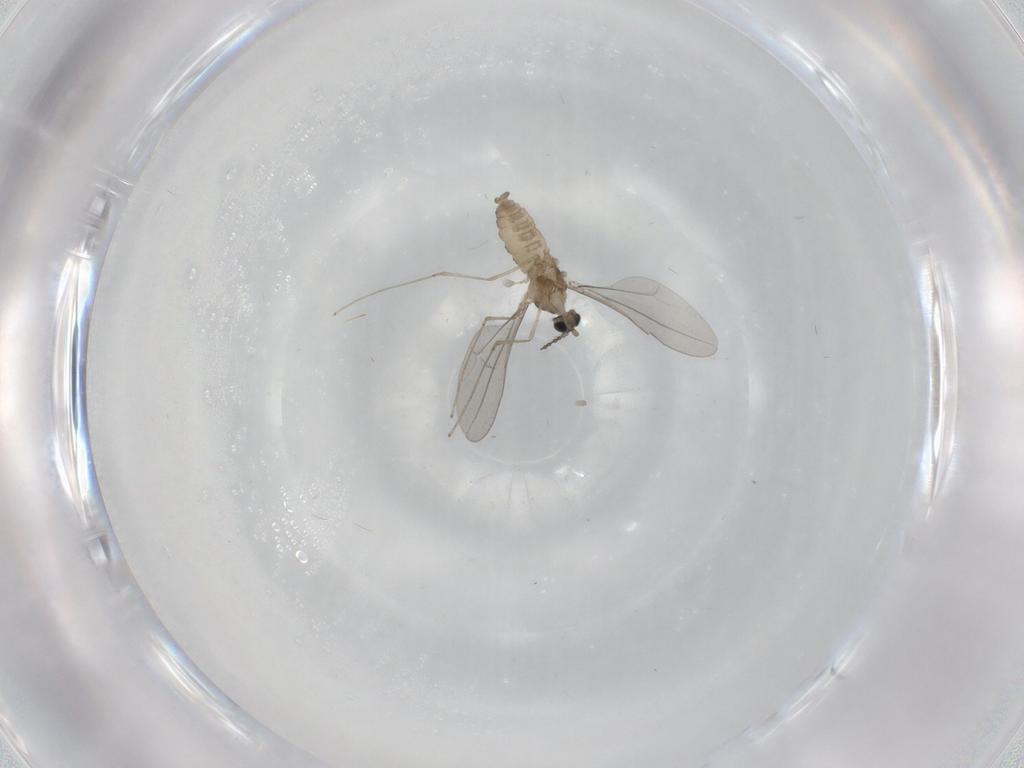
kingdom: Animalia
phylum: Arthropoda
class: Insecta
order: Diptera
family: Cecidomyiidae
